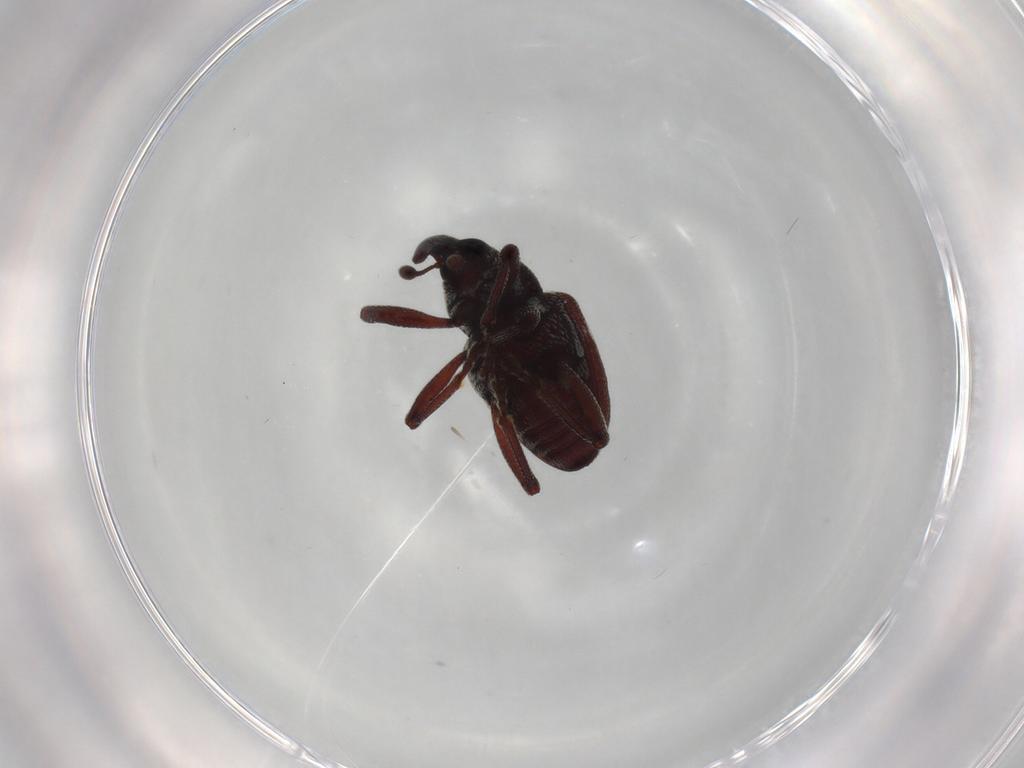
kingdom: Animalia
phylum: Arthropoda
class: Insecta
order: Coleoptera
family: Curculionidae
